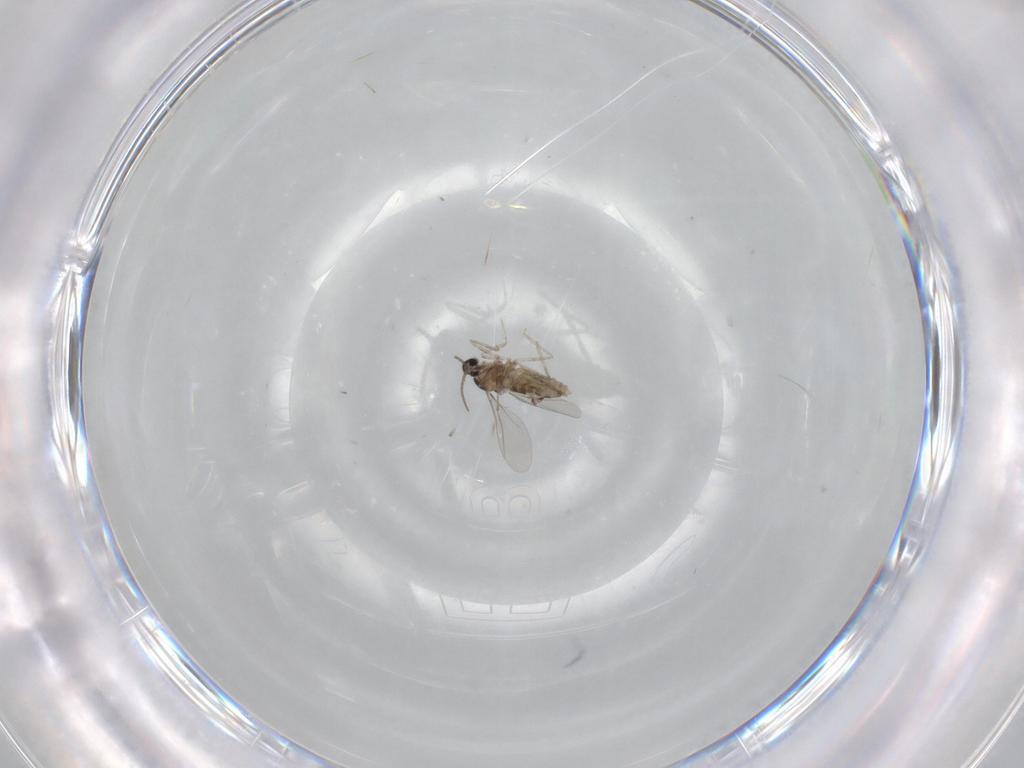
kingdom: Animalia
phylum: Arthropoda
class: Insecta
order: Diptera
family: Cecidomyiidae
